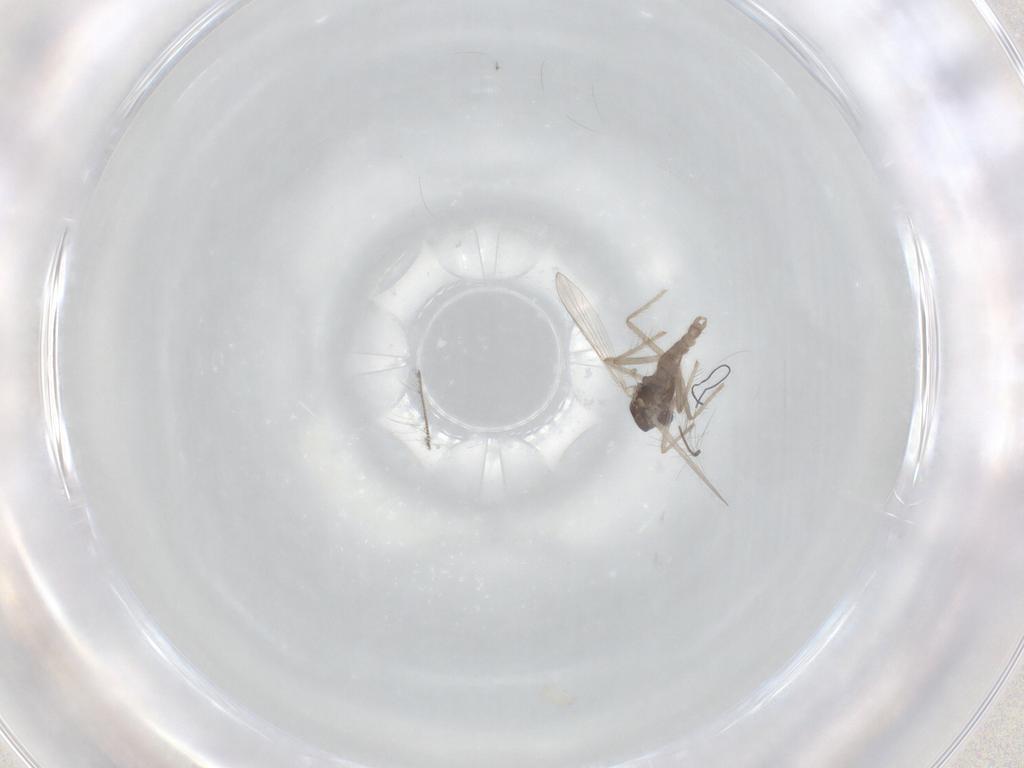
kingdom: Animalia
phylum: Arthropoda
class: Insecta
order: Diptera
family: Chironomidae
